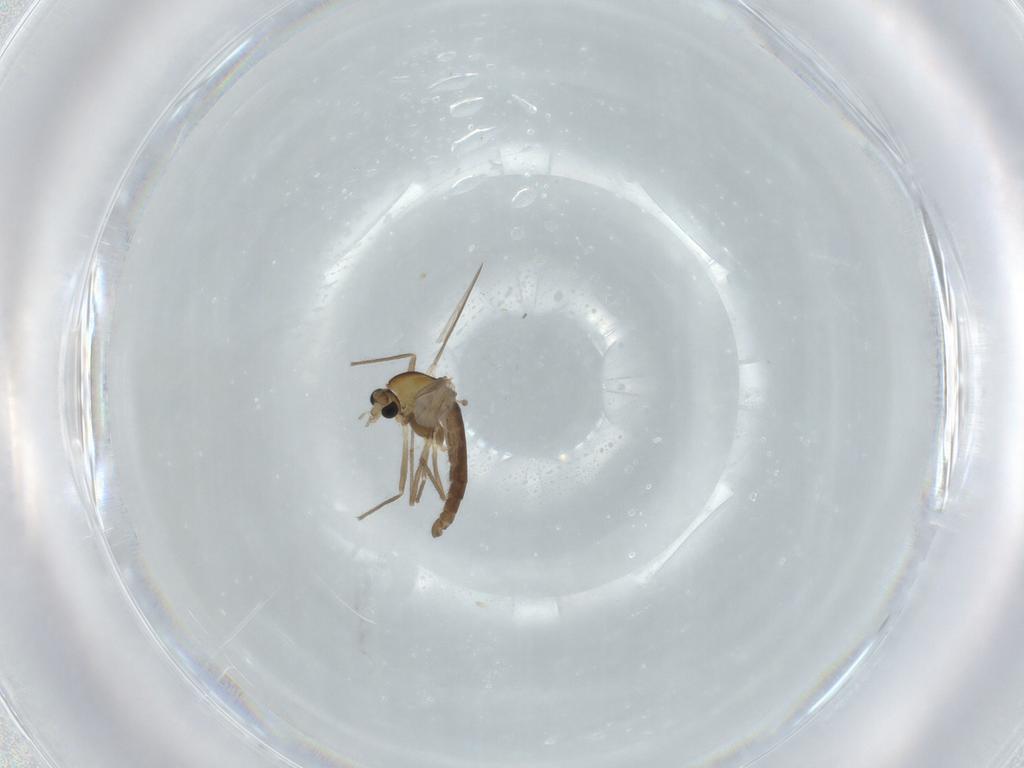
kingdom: Animalia
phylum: Arthropoda
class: Insecta
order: Diptera
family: Chironomidae
